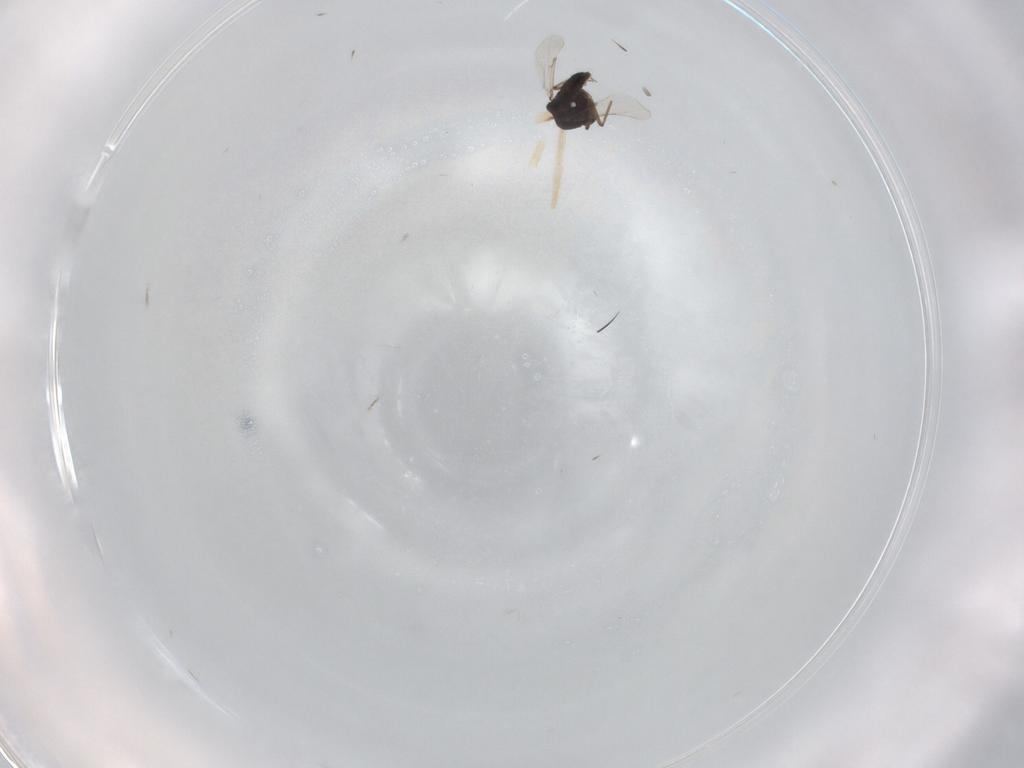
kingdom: Animalia
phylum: Arthropoda
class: Insecta
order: Diptera
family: Ceratopogonidae
